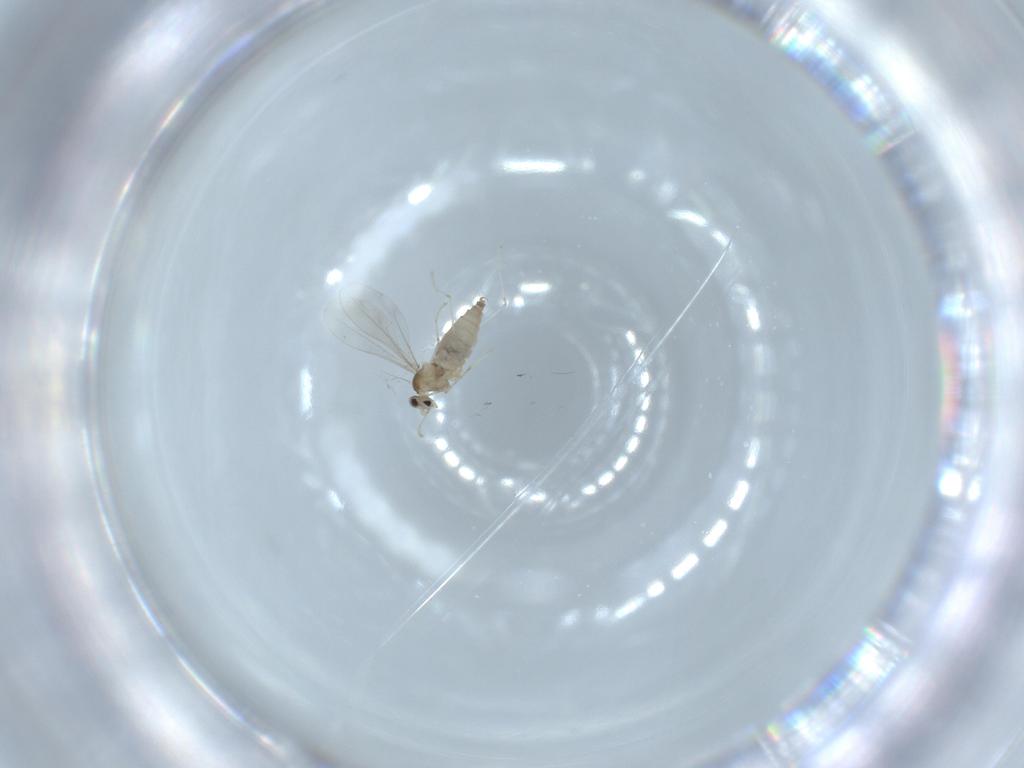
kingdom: Animalia
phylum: Arthropoda
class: Insecta
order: Diptera
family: Cecidomyiidae
